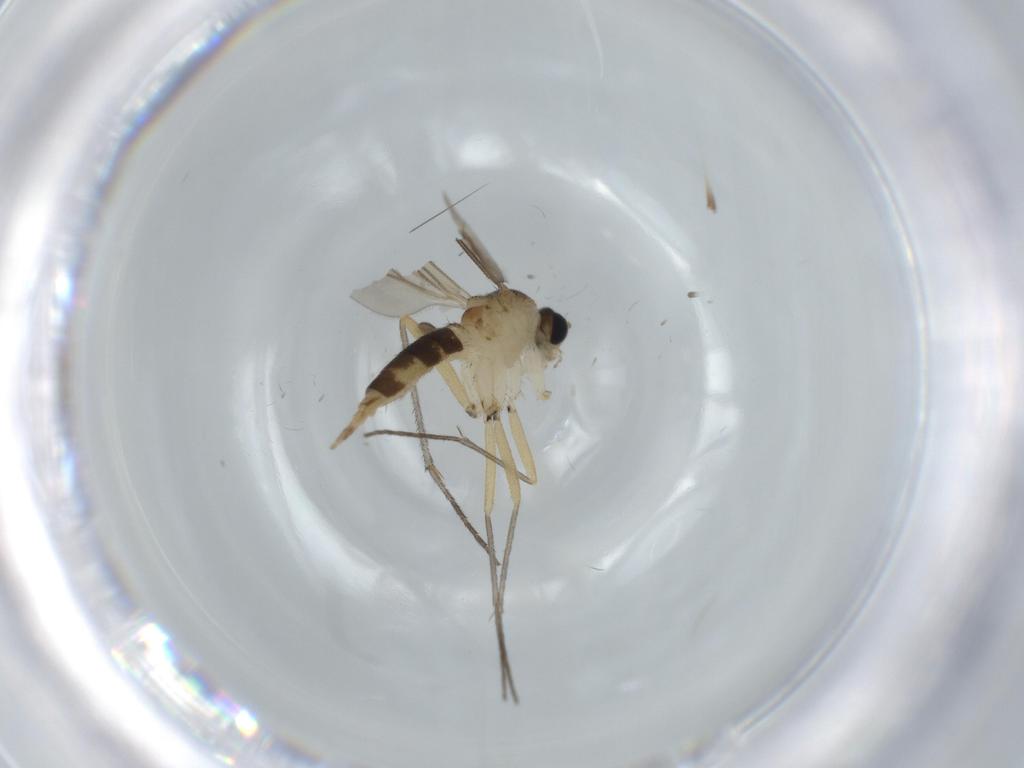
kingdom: Animalia
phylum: Arthropoda
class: Insecta
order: Diptera
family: Sciaridae
